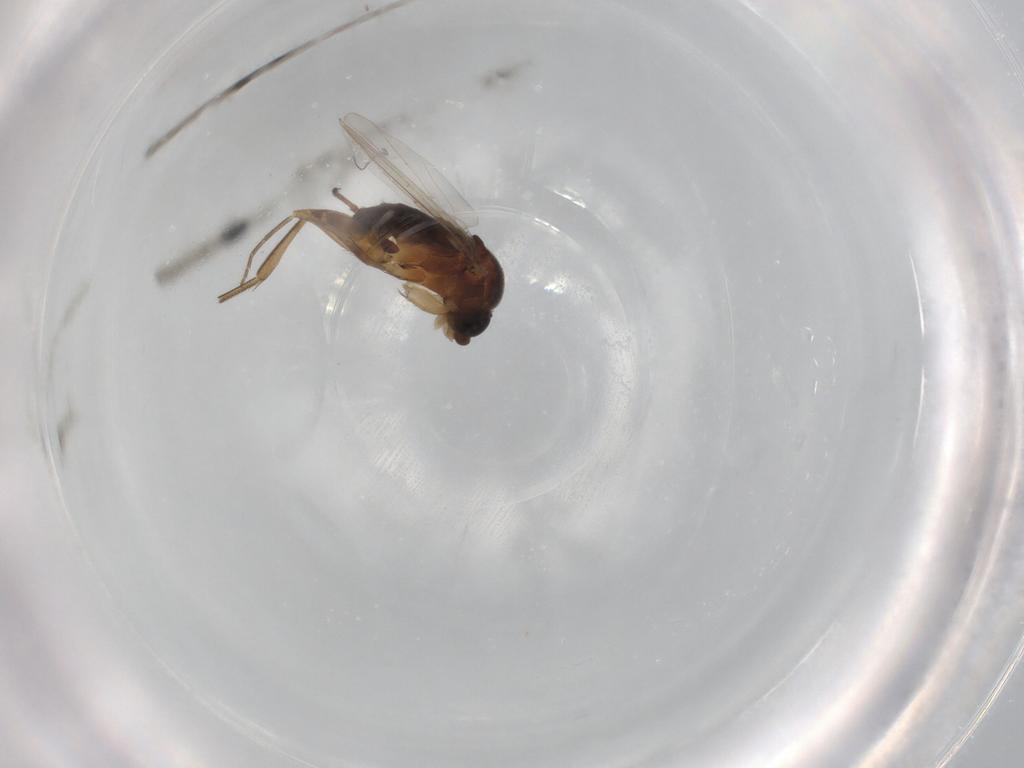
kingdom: Animalia
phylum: Arthropoda
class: Insecta
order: Diptera
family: Phoridae
